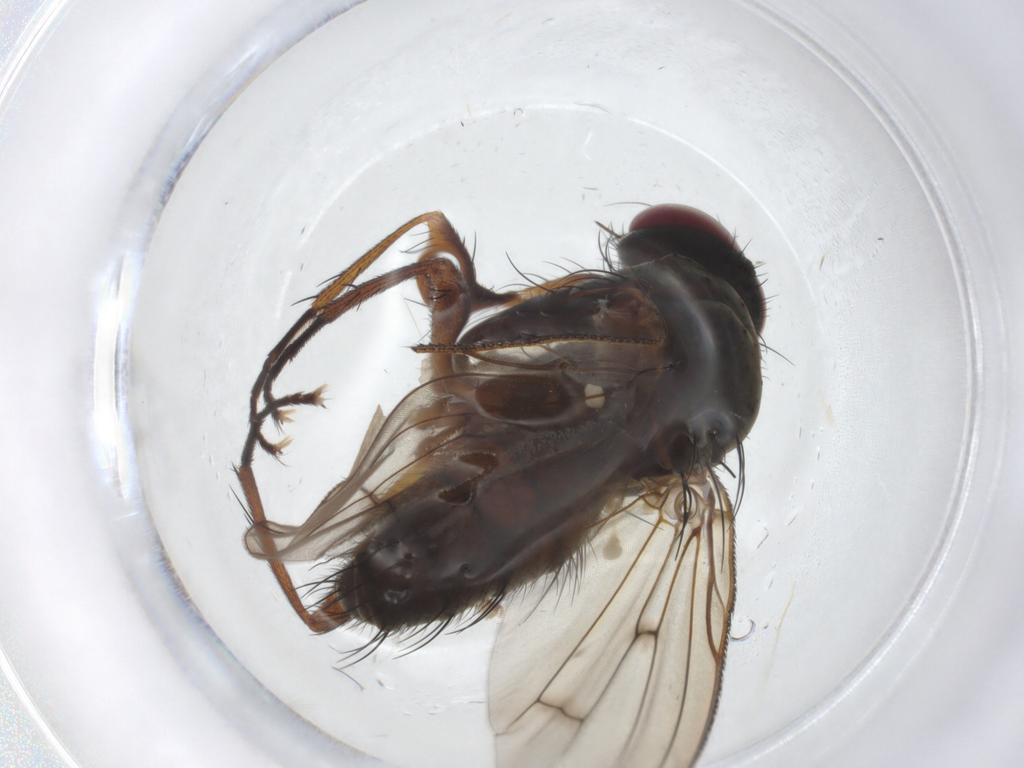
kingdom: Animalia
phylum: Arthropoda
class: Insecta
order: Diptera
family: Anthomyiidae
